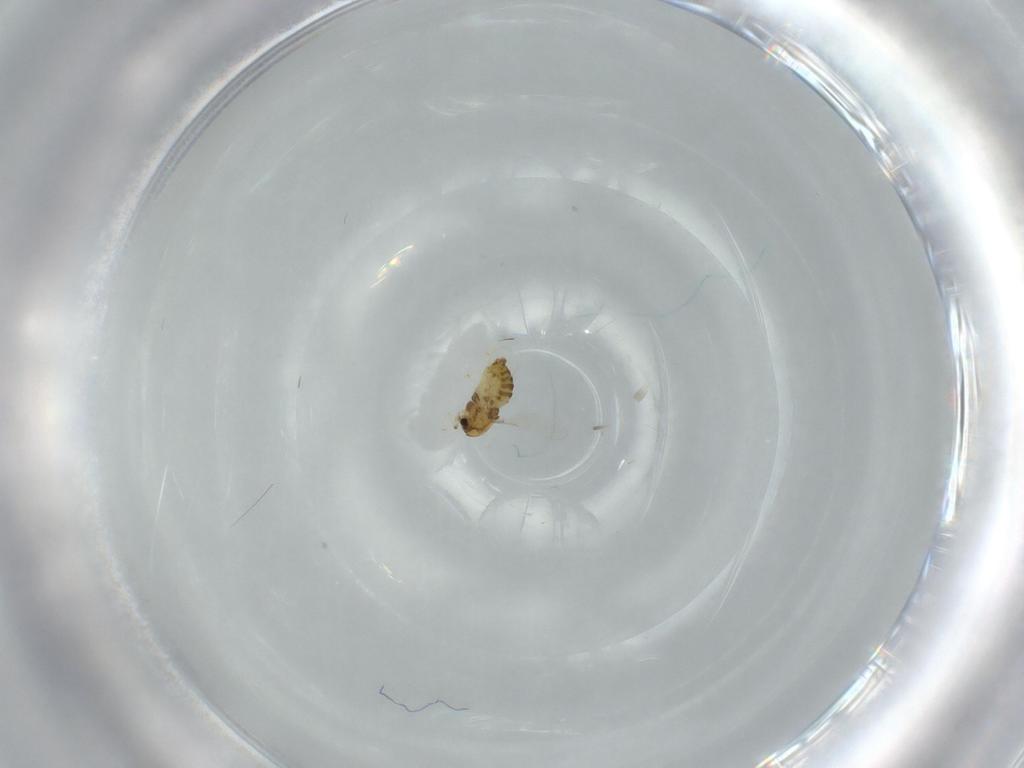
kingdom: Animalia
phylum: Arthropoda
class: Insecta
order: Diptera
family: Chironomidae
